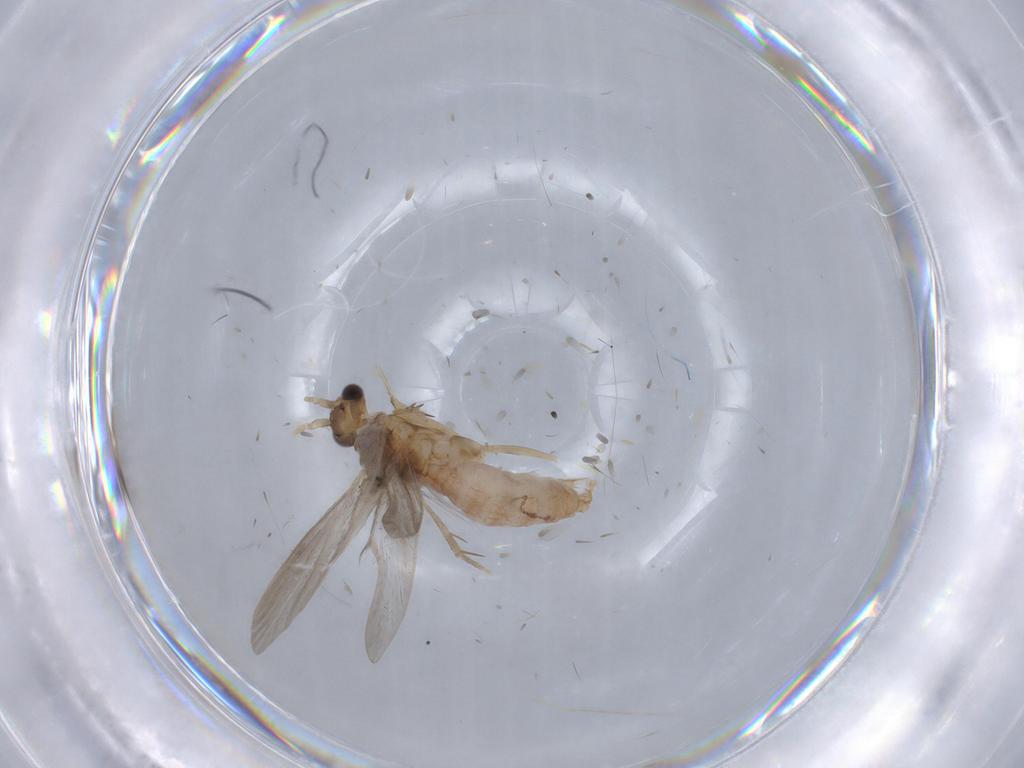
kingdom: Animalia
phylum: Arthropoda
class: Insecta
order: Trichoptera
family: Glossosomatidae
